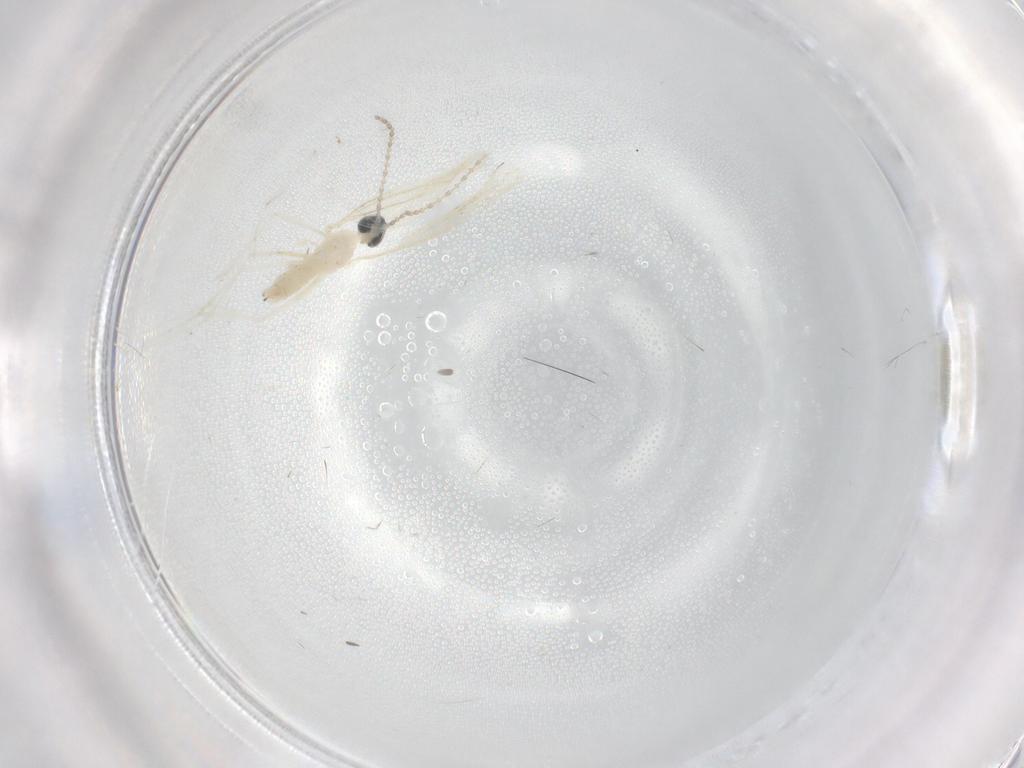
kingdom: Animalia
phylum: Arthropoda
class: Insecta
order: Diptera
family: Cecidomyiidae
